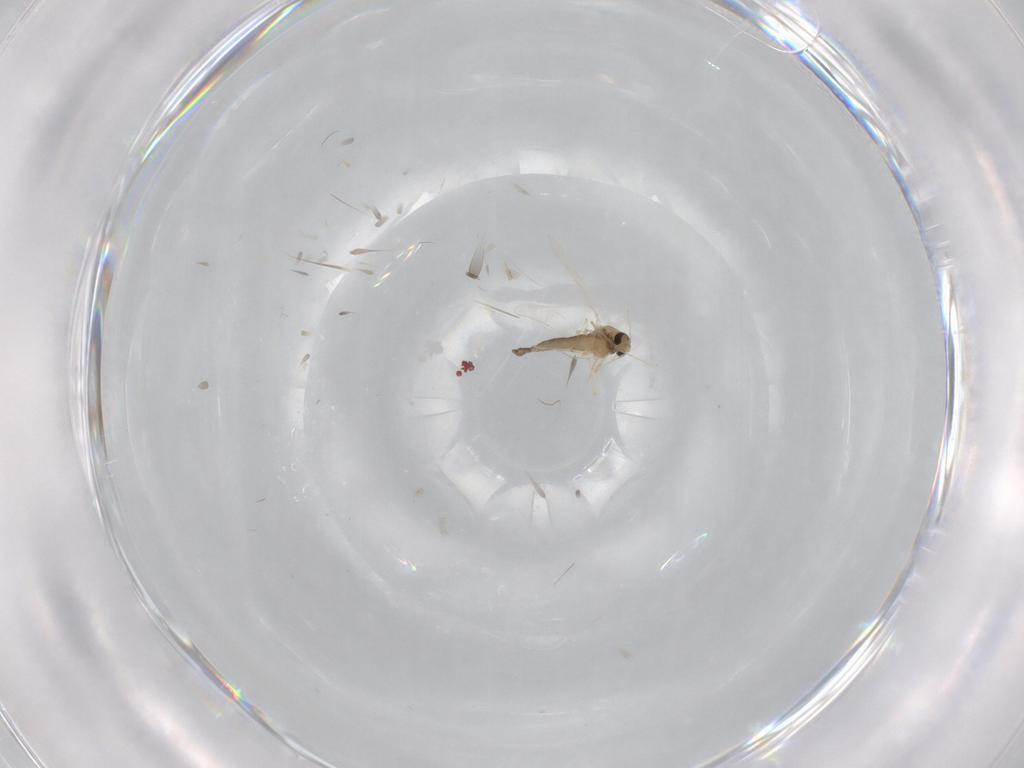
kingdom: Animalia
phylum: Arthropoda
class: Insecta
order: Diptera
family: Chironomidae
